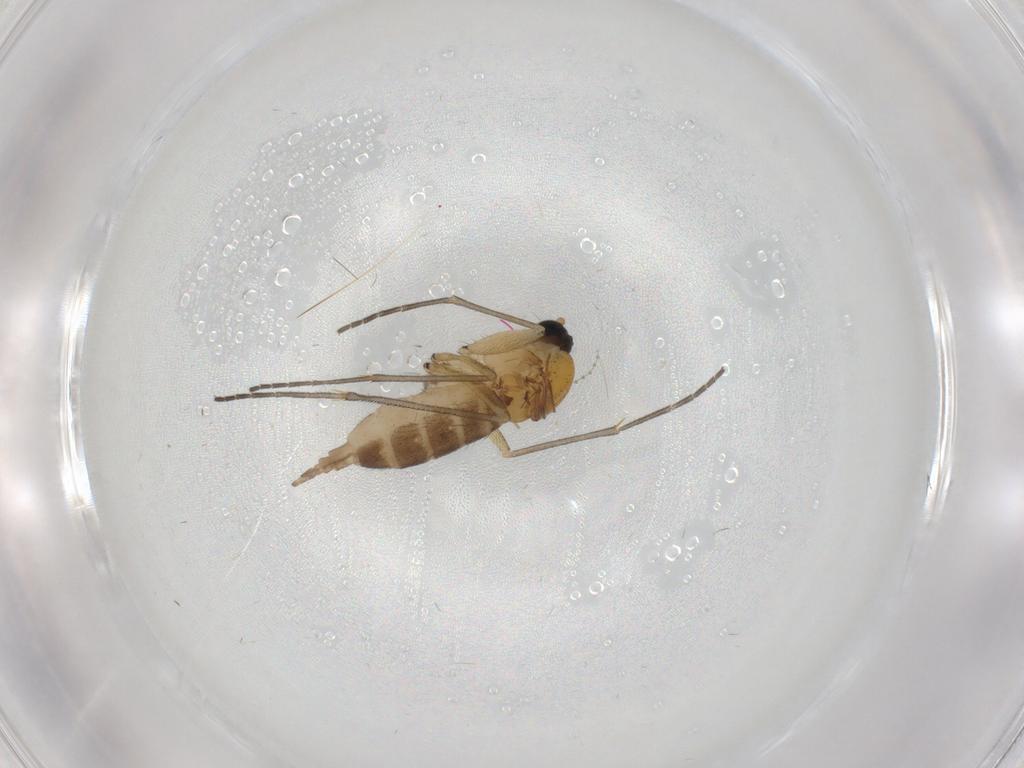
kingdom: Animalia
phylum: Arthropoda
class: Insecta
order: Diptera
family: Sciaridae
